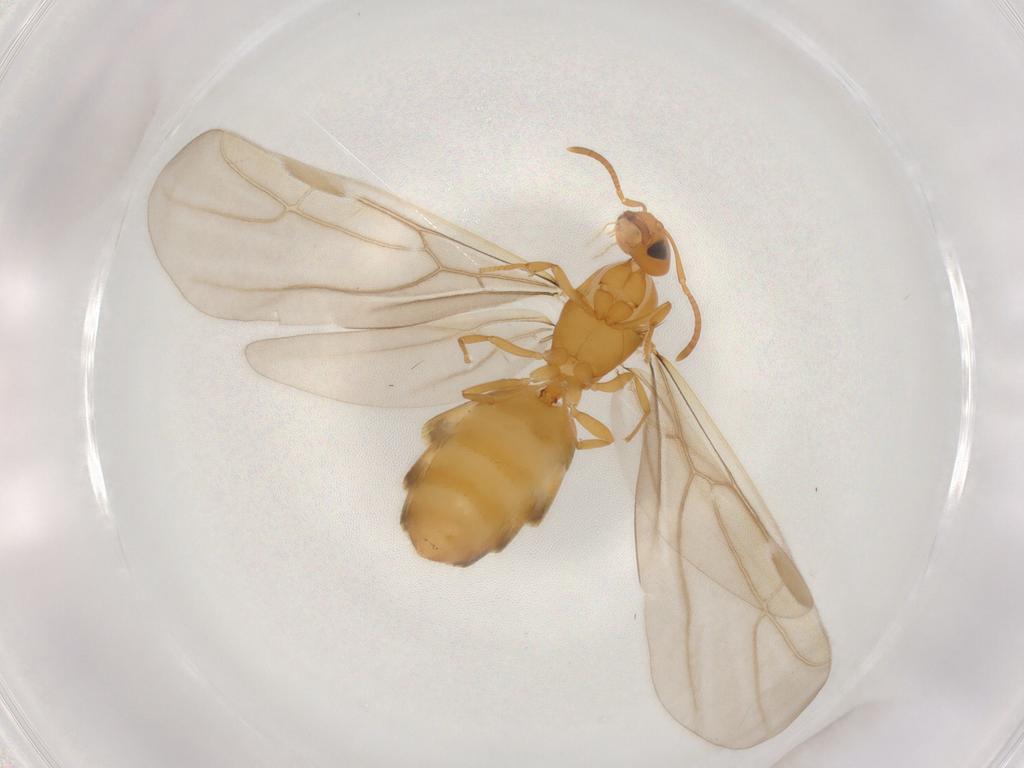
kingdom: Animalia
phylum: Arthropoda
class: Insecta
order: Hymenoptera
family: Formicidae
